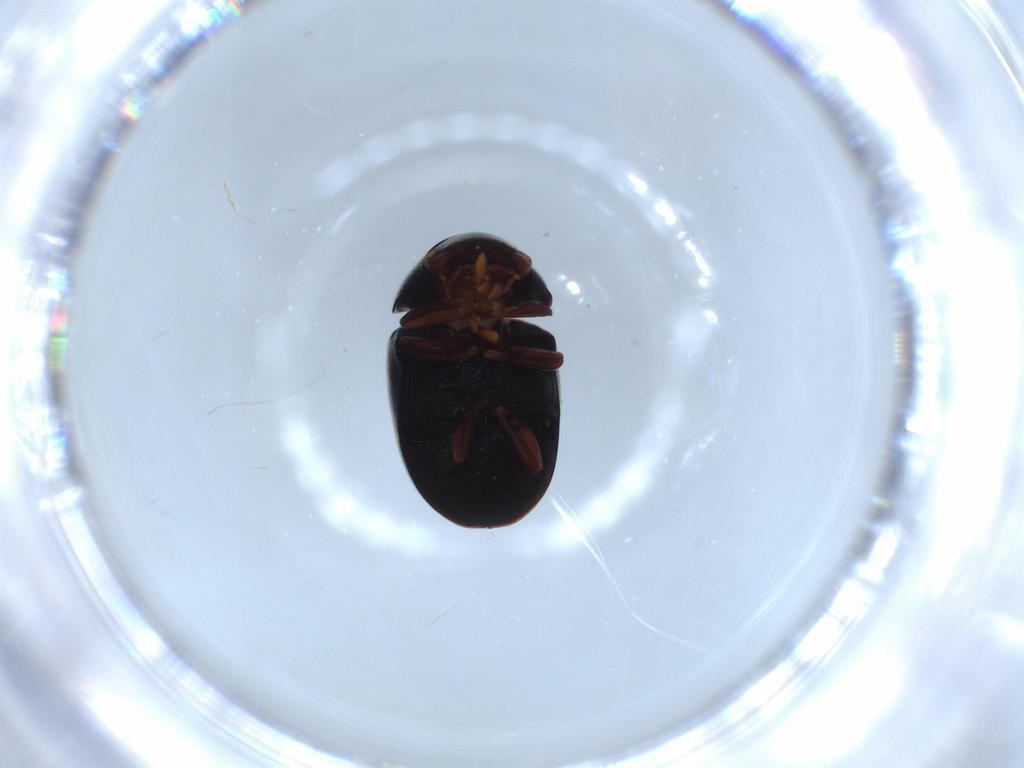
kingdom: Animalia
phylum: Arthropoda
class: Insecta
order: Coleoptera
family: Ptinidae
